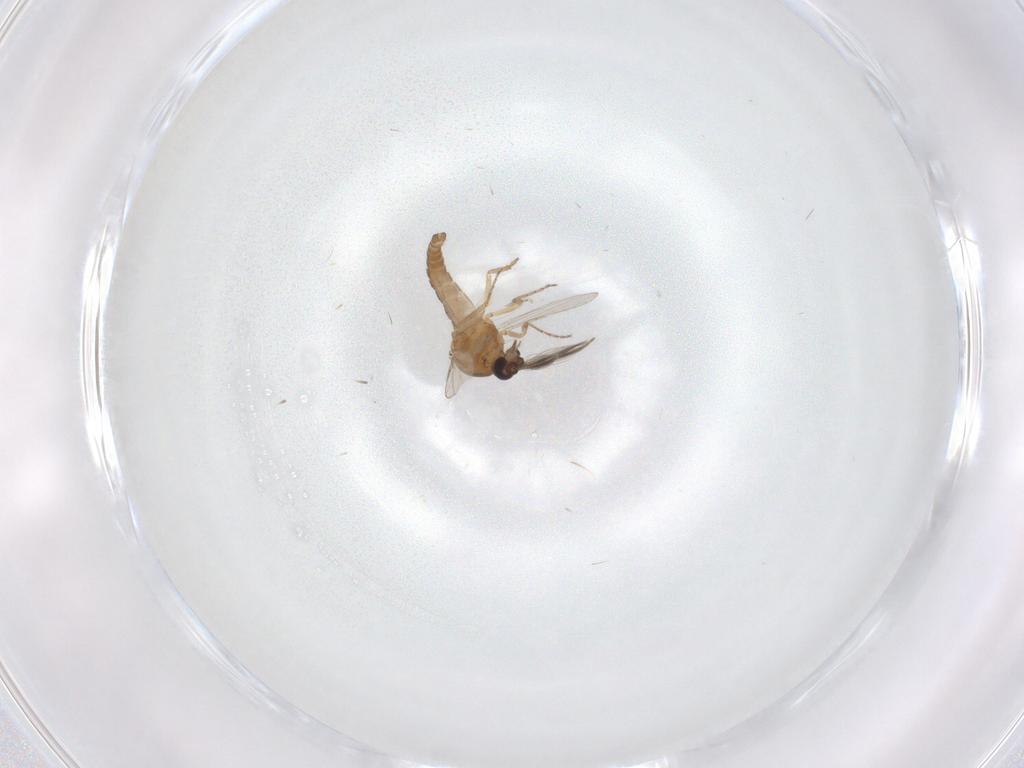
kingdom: Animalia
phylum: Arthropoda
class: Insecta
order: Diptera
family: Ceratopogonidae
